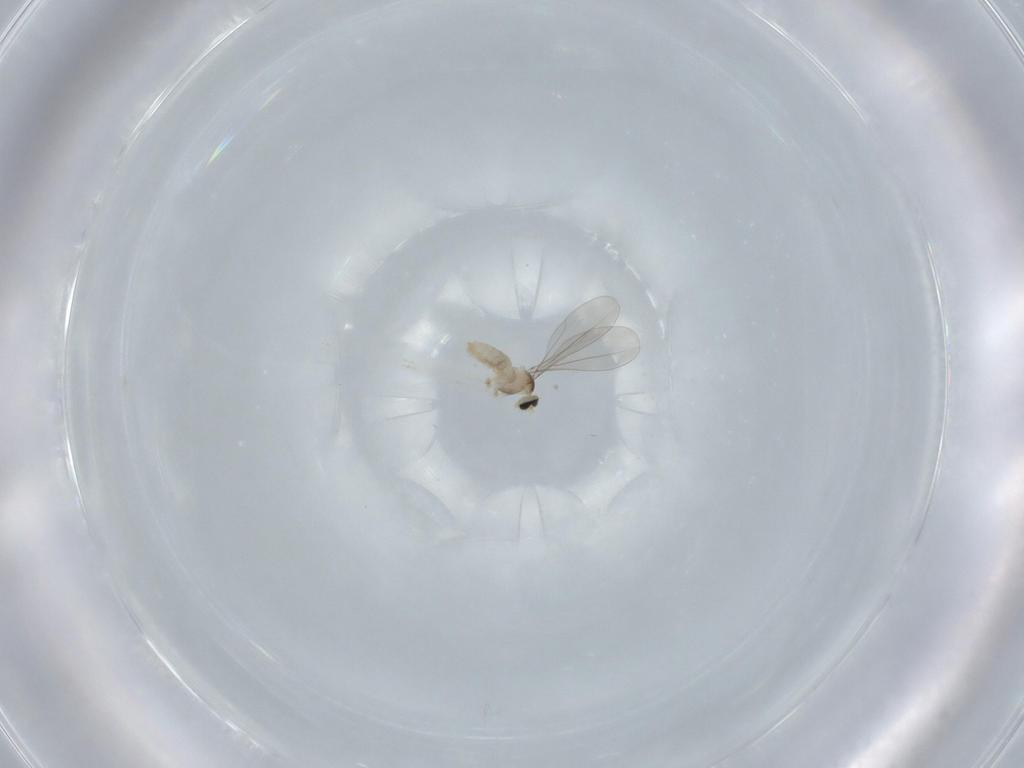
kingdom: Animalia
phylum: Arthropoda
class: Insecta
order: Diptera
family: Cecidomyiidae
